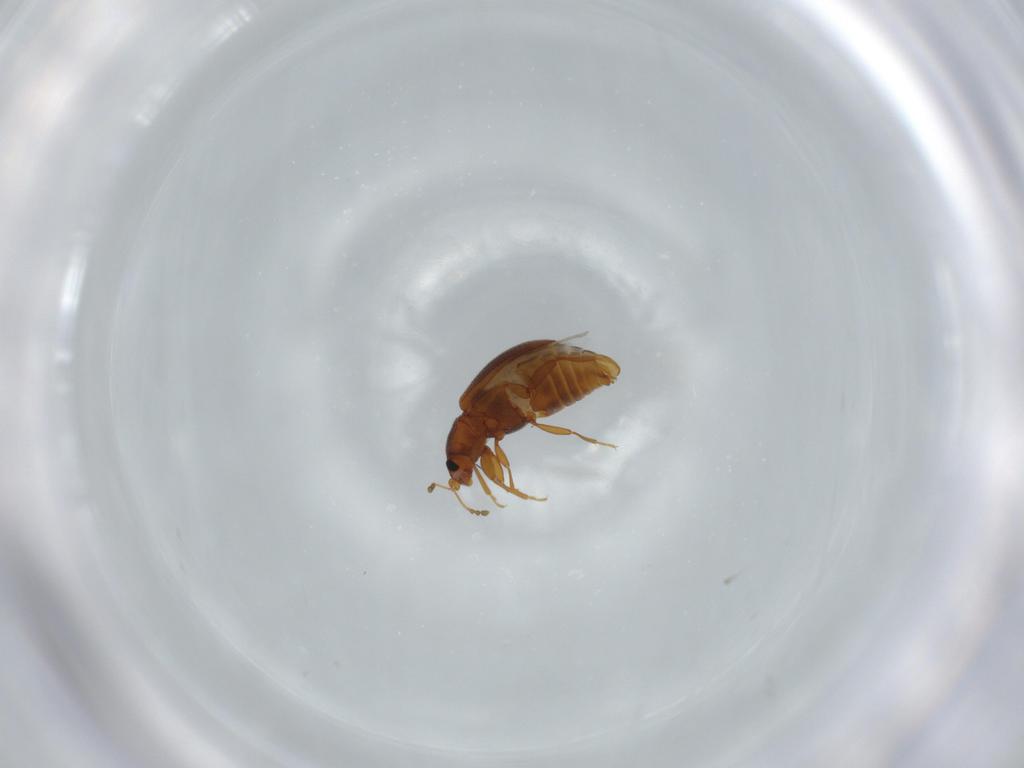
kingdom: Animalia
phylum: Arthropoda
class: Insecta
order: Coleoptera
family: Latridiidae
